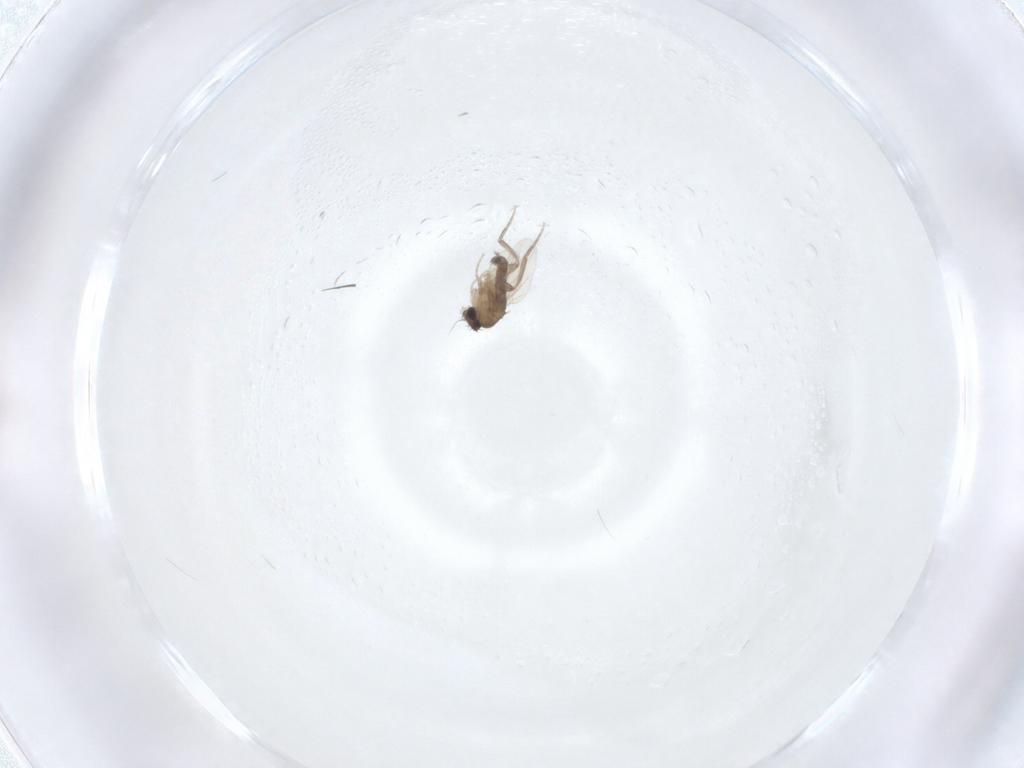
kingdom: Animalia
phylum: Arthropoda
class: Insecta
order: Diptera
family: Phoridae
